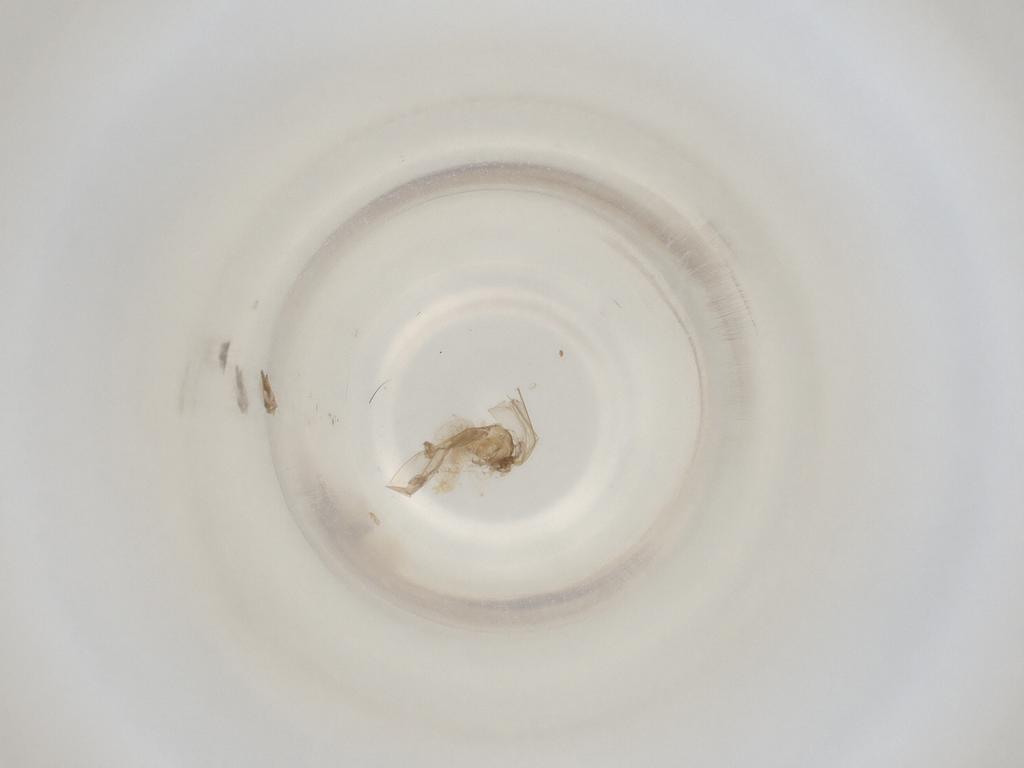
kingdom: Animalia
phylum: Arthropoda
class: Insecta
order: Diptera
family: Cecidomyiidae
